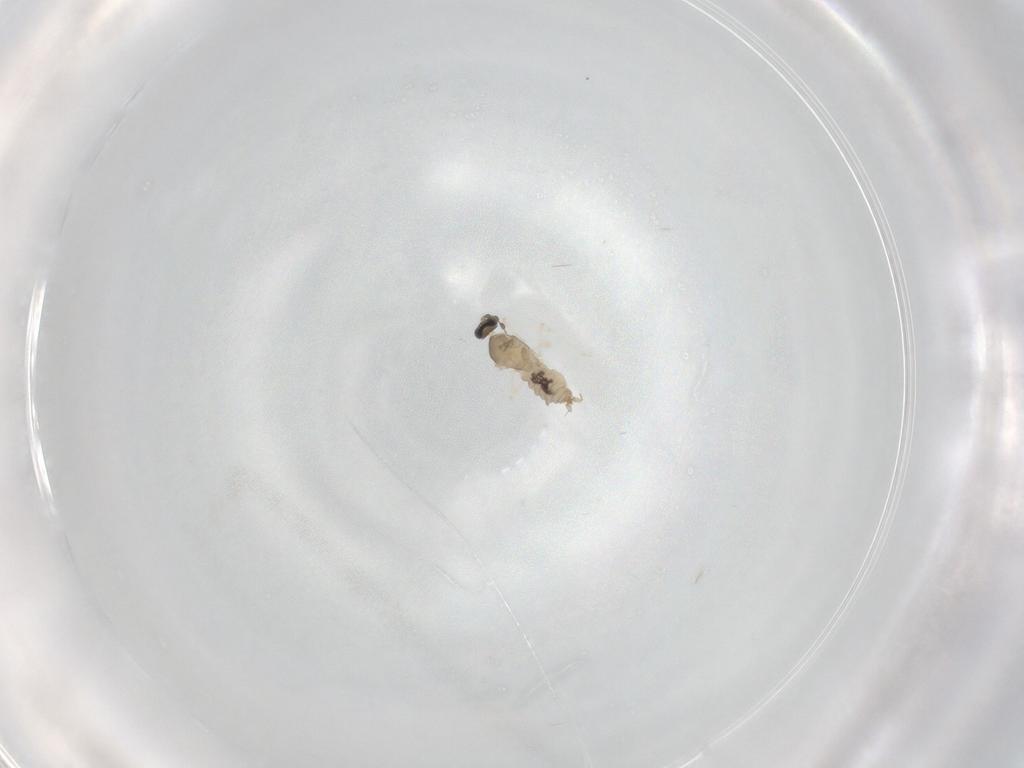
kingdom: Animalia
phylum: Arthropoda
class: Insecta
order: Diptera
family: Cecidomyiidae
